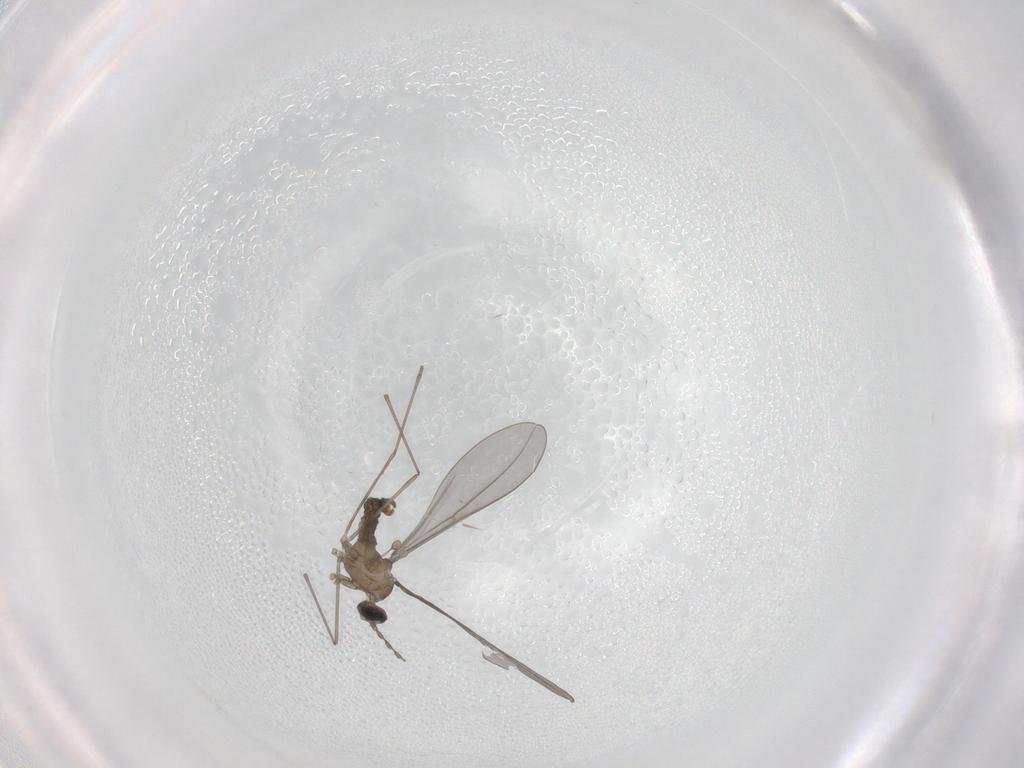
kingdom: Animalia
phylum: Arthropoda
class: Insecta
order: Diptera
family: Cecidomyiidae
